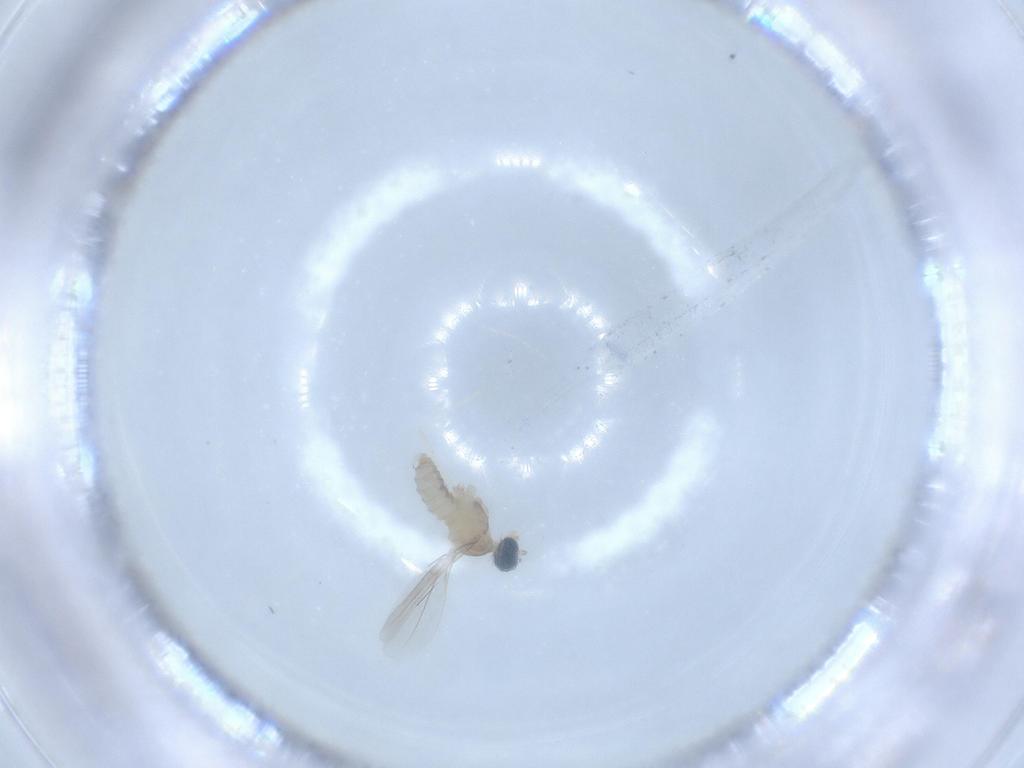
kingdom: Animalia
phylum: Arthropoda
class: Insecta
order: Diptera
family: Cecidomyiidae
